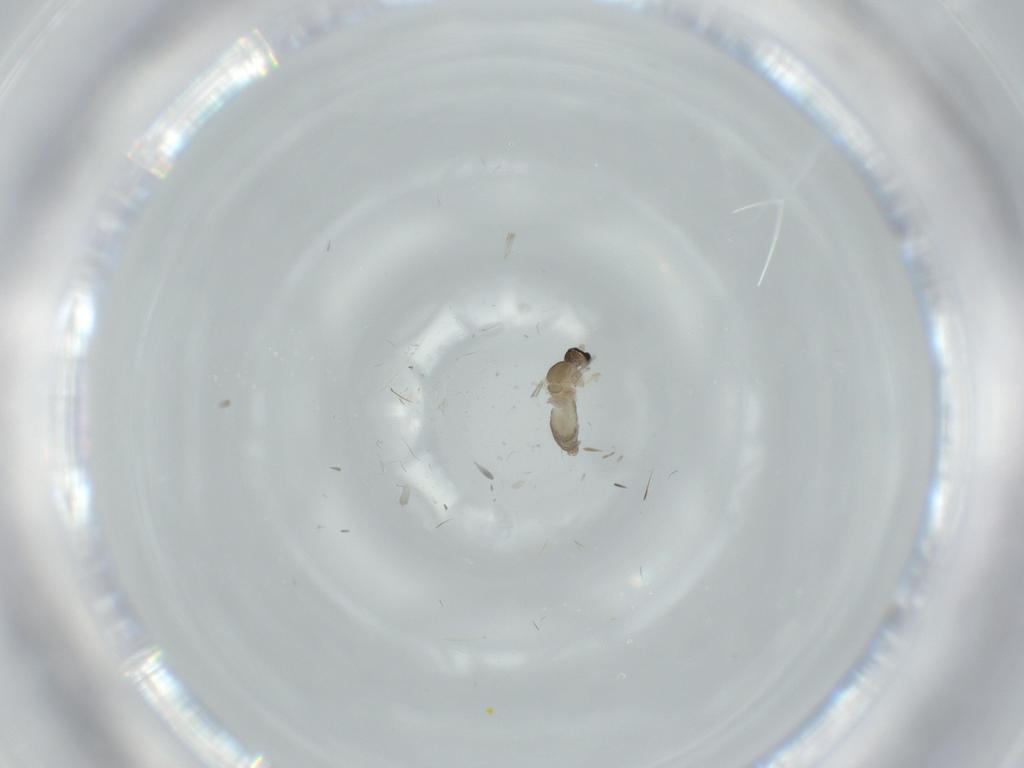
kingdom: Animalia
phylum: Arthropoda
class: Insecta
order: Diptera
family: Cecidomyiidae
